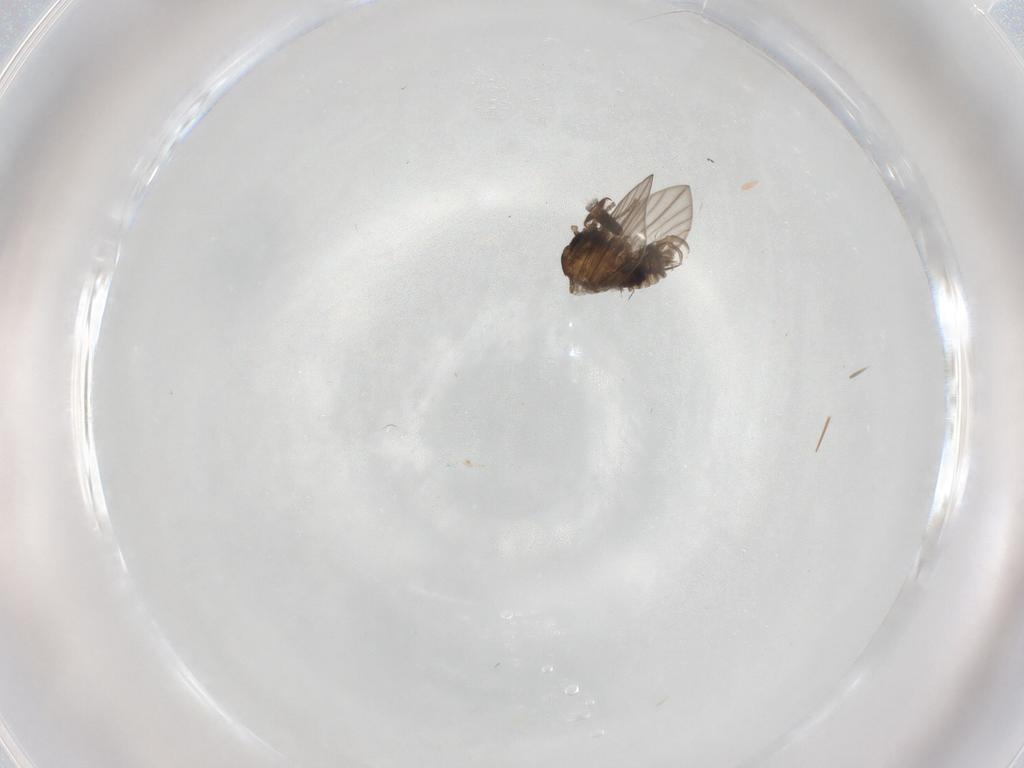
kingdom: Animalia
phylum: Arthropoda
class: Insecta
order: Diptera
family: Psychodidae
